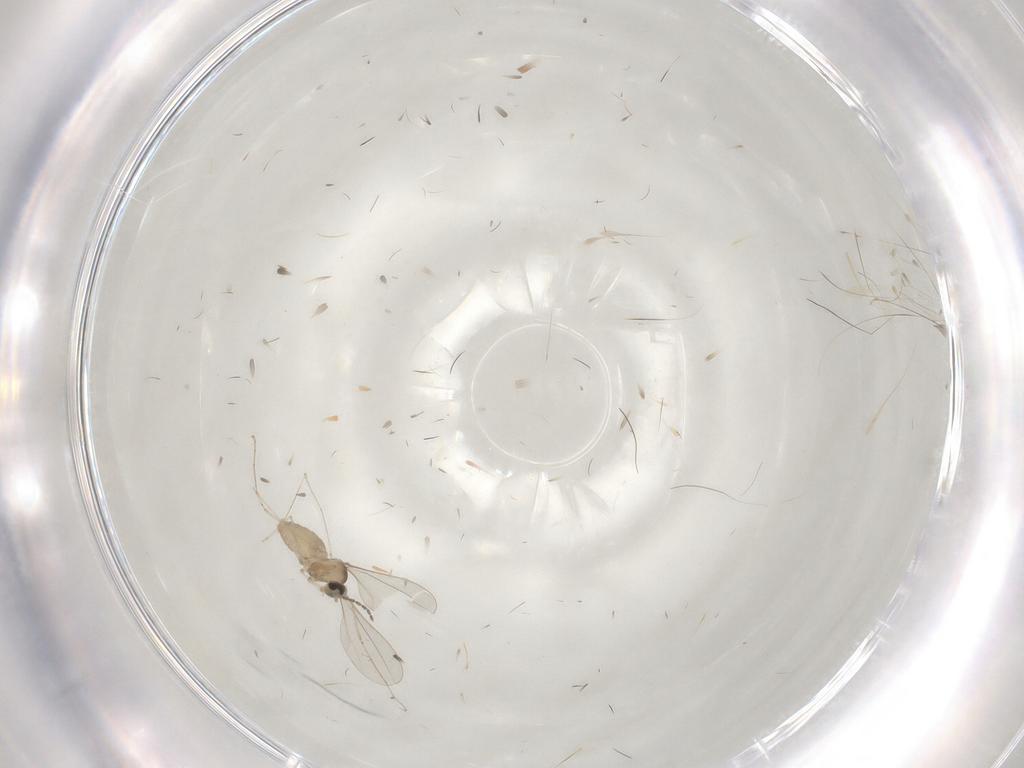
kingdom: Animalia
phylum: Arthropoda
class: Insecta
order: Diptera
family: Cecidomyiidae
